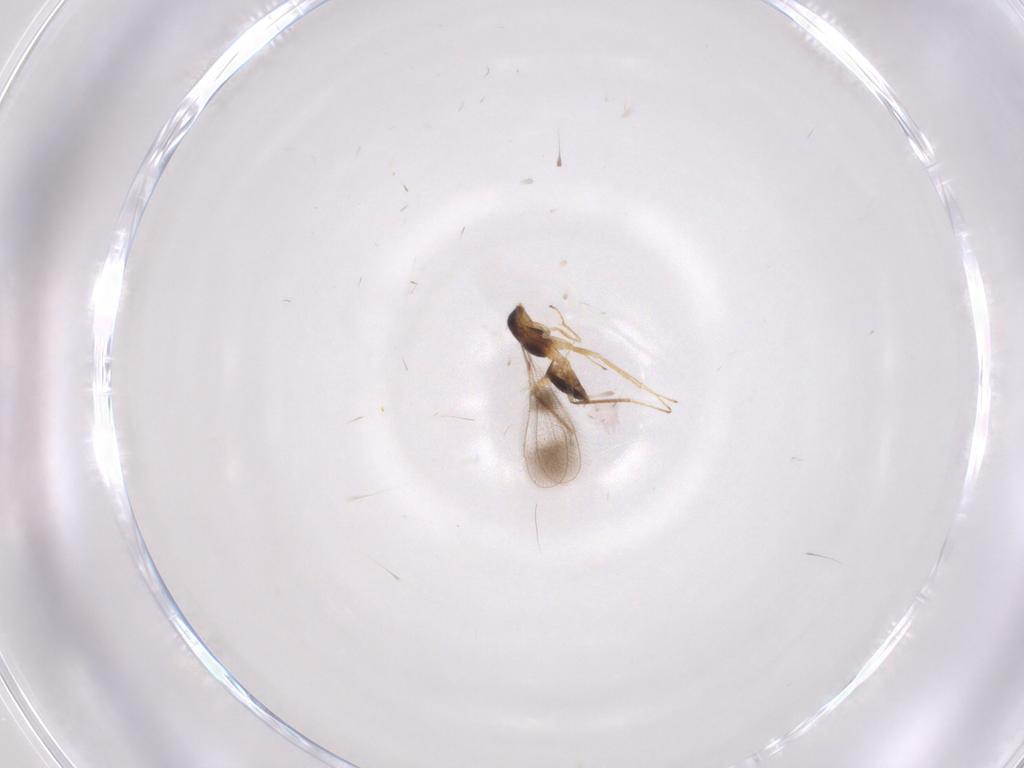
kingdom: Animalia
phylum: Arthropoda
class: Insecta
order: Hymenoptera
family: Mymaridae
